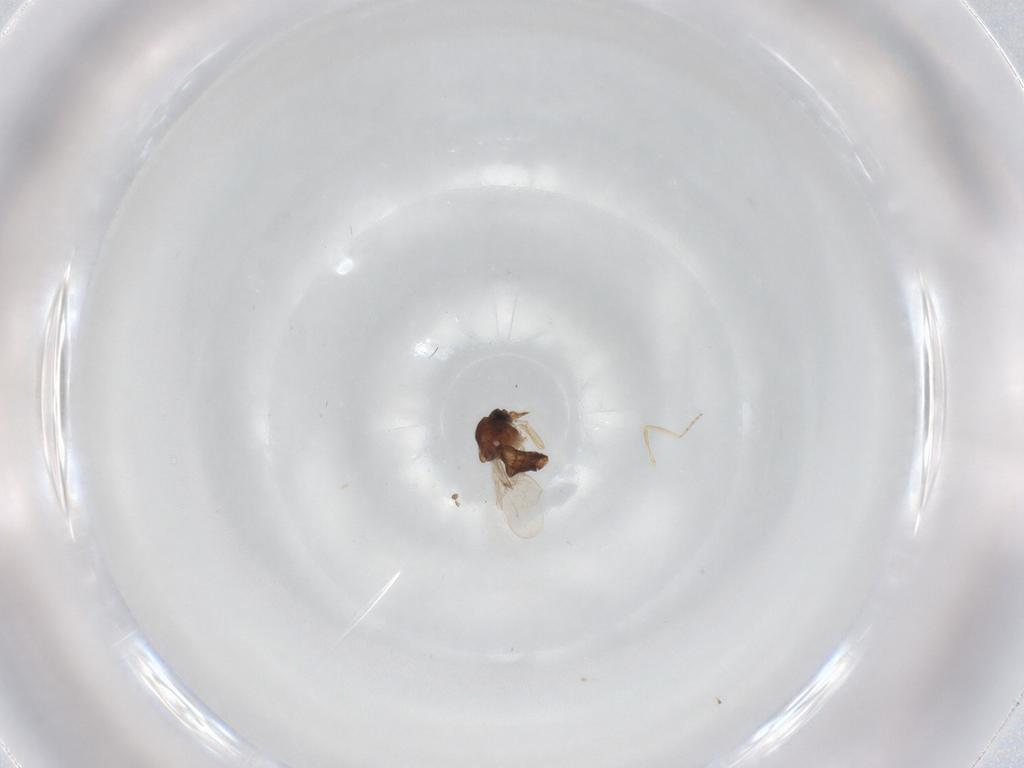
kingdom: Animalia
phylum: Arthropoda
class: Insecta
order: Diptera
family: Ceratopogonidae
